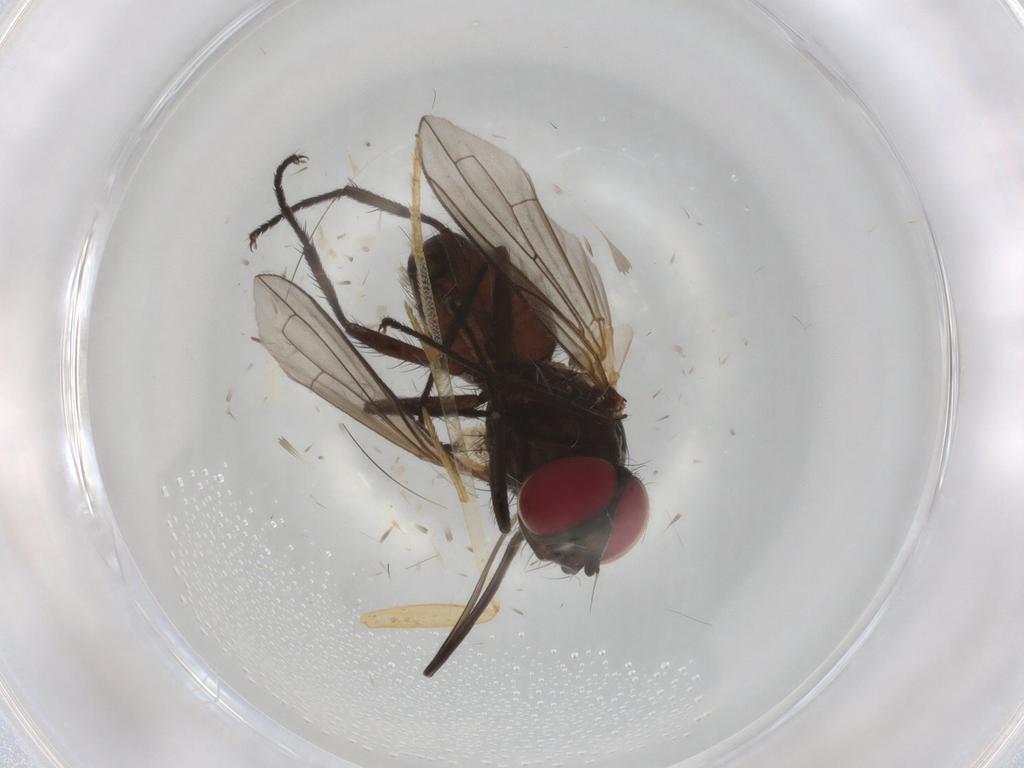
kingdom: Animalia
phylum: Arthropoda
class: Insecta
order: Diptera
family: Tachinidae
